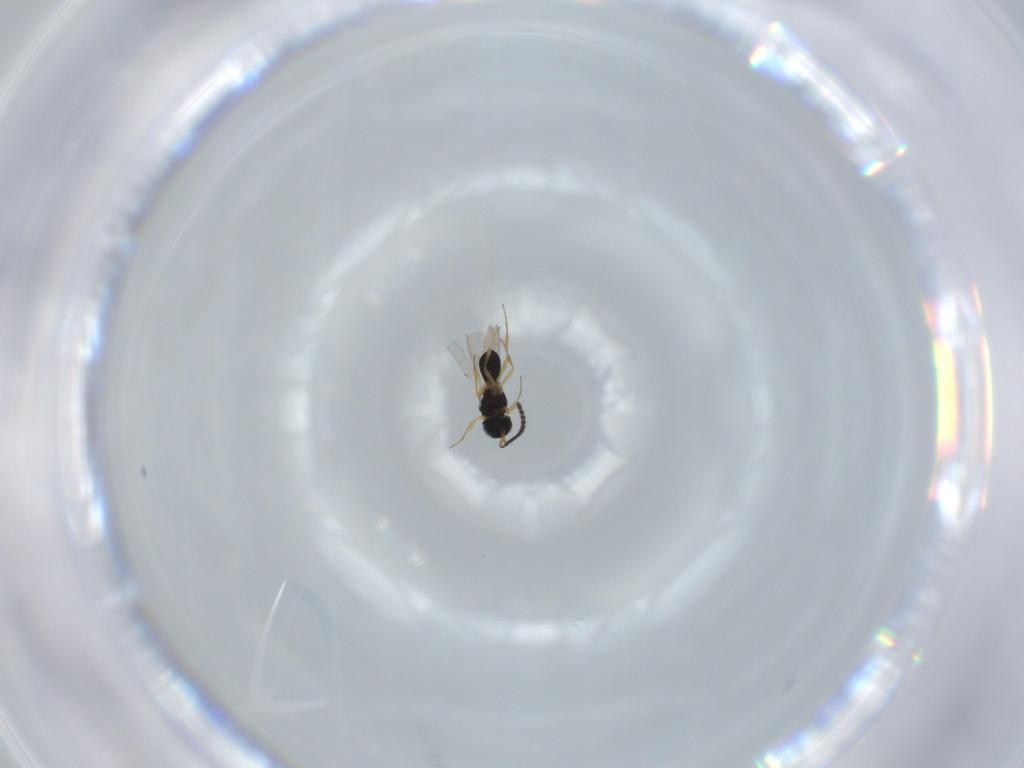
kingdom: Animalia
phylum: Arthropoda
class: Insecta
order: Hymenoptera
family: Scelionidae
